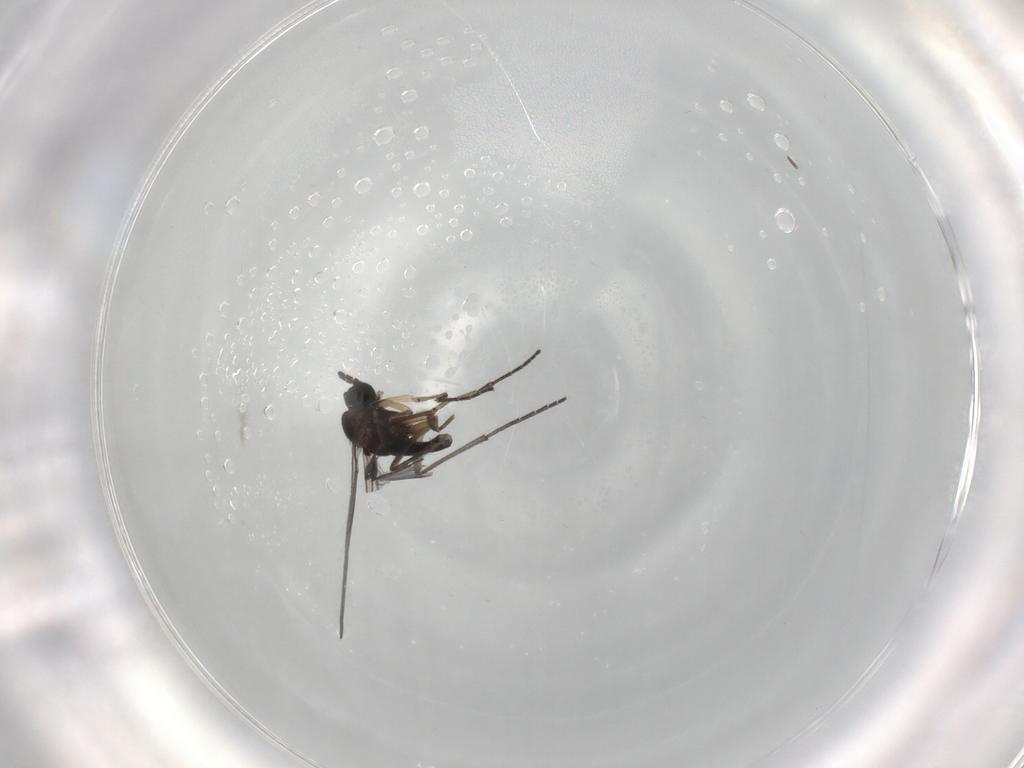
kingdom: Animalia
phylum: Arthropoda
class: Insecta
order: Diptera
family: Sciaridae
